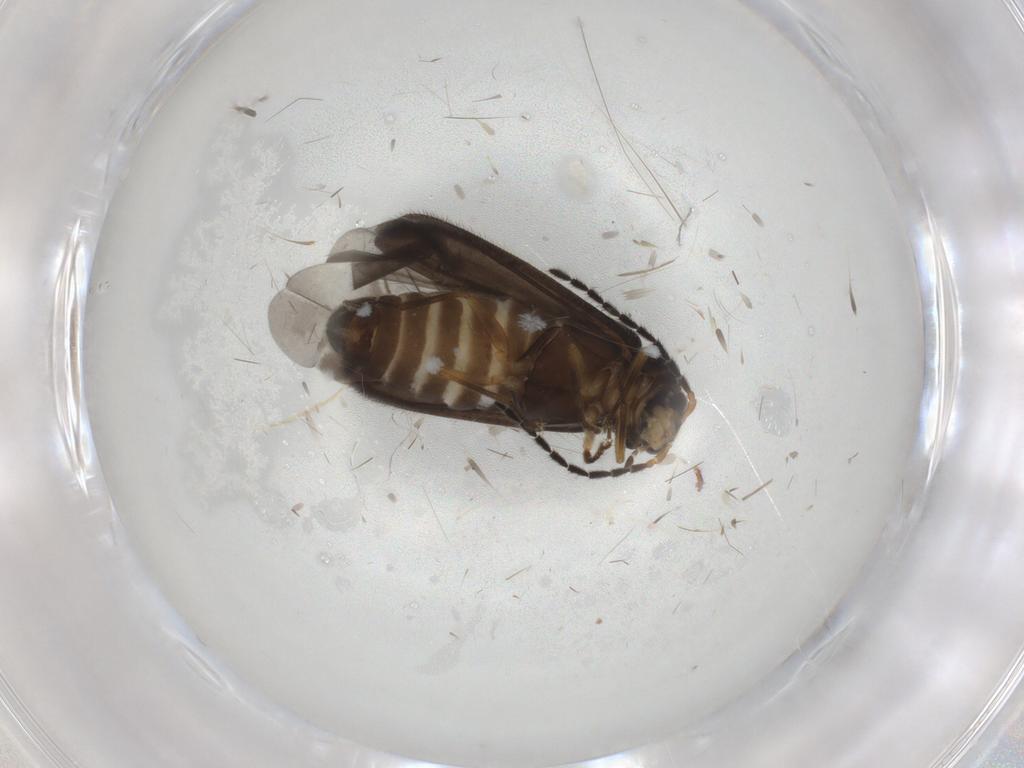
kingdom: Animalia
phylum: Arthropoda
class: Insecta
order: Coleoptera
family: Cantharidae
